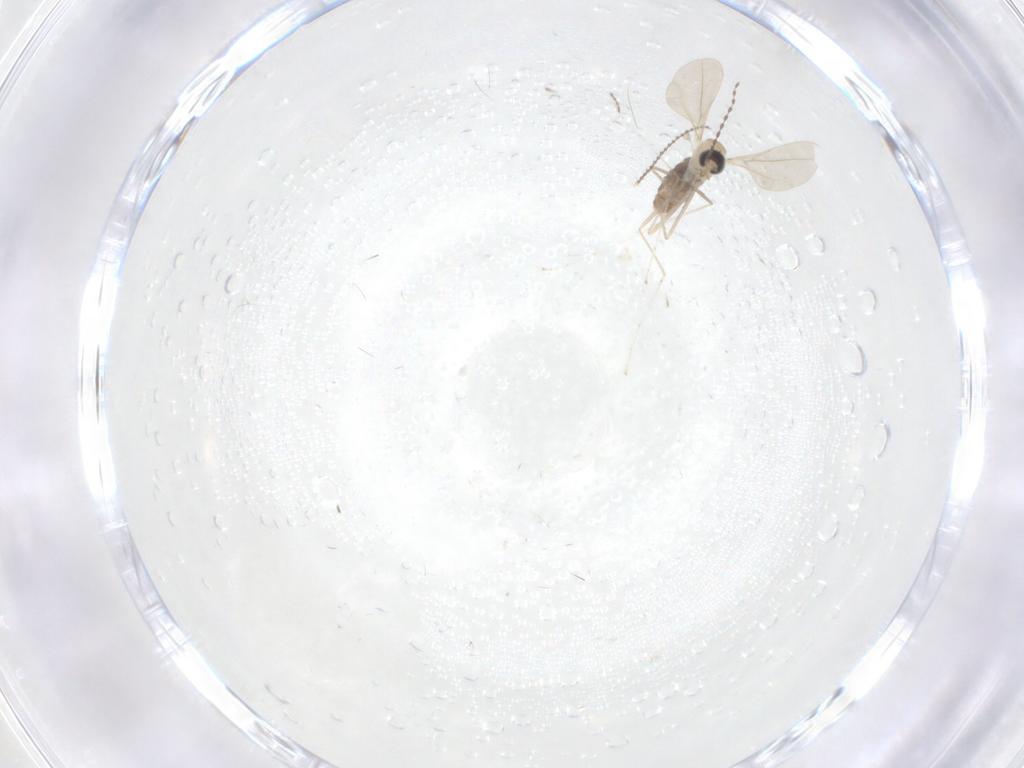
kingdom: Animalia
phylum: Arthropoda
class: Insecta
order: Diptera
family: Cecidomyiidae
